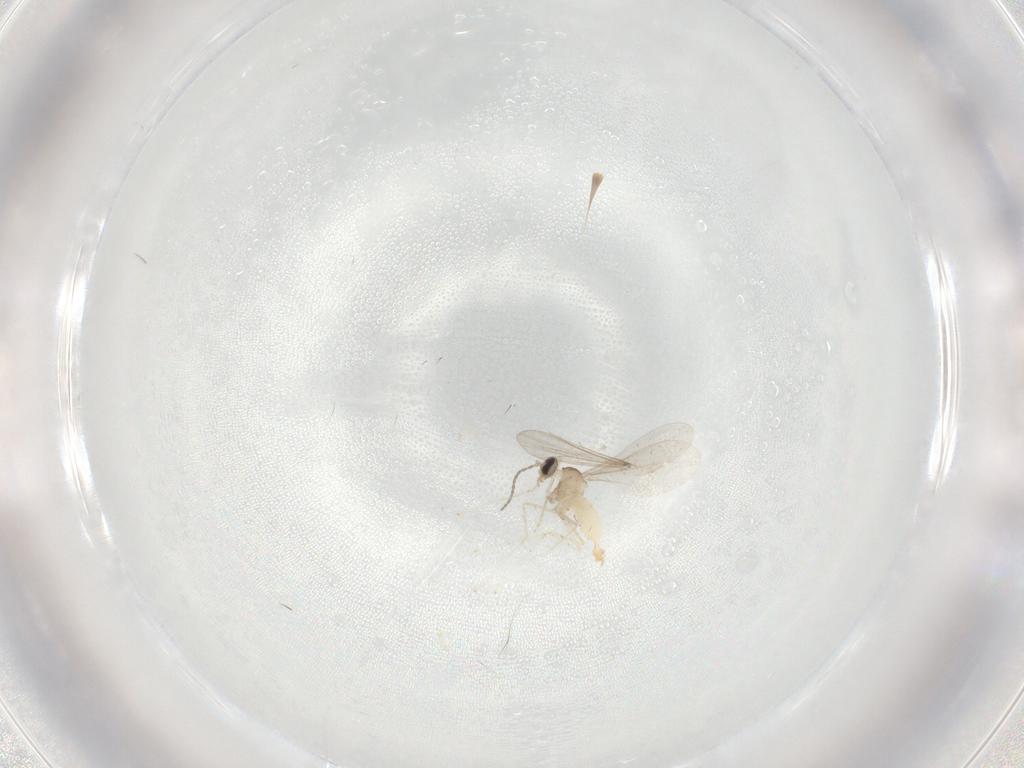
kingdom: Animalia
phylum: Arthropoda
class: Insecta
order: Diptera
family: Cecidomyiidae
